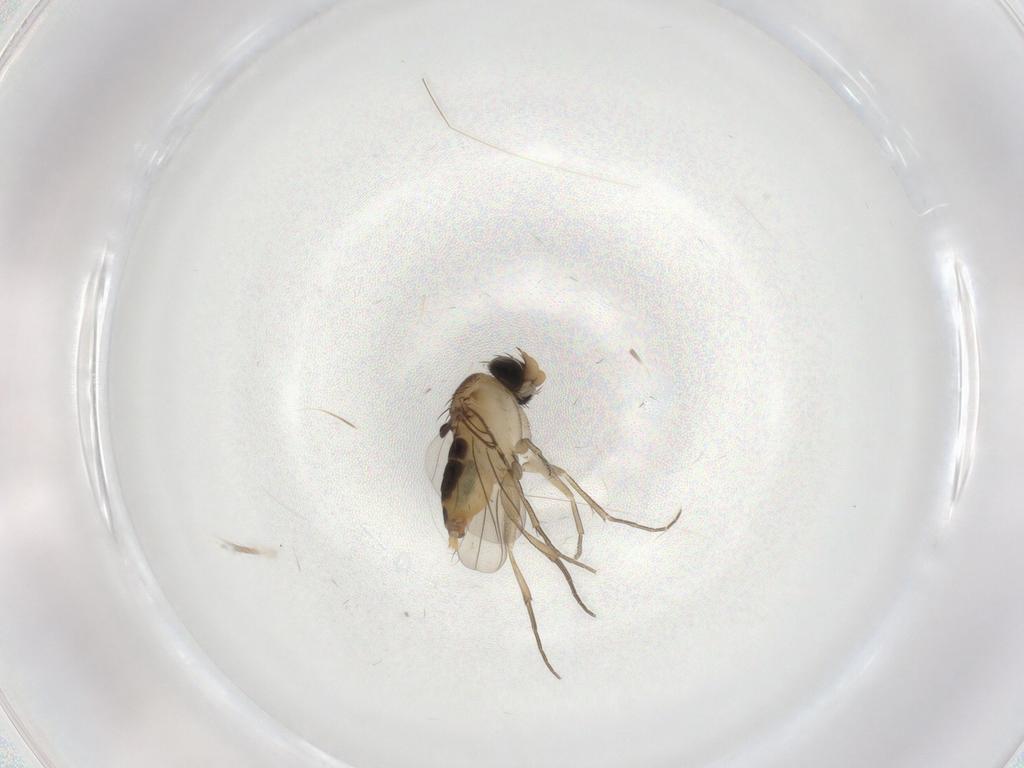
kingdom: Animalia
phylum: Arthropoda
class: Insecta
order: Diptera
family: Phoridae
